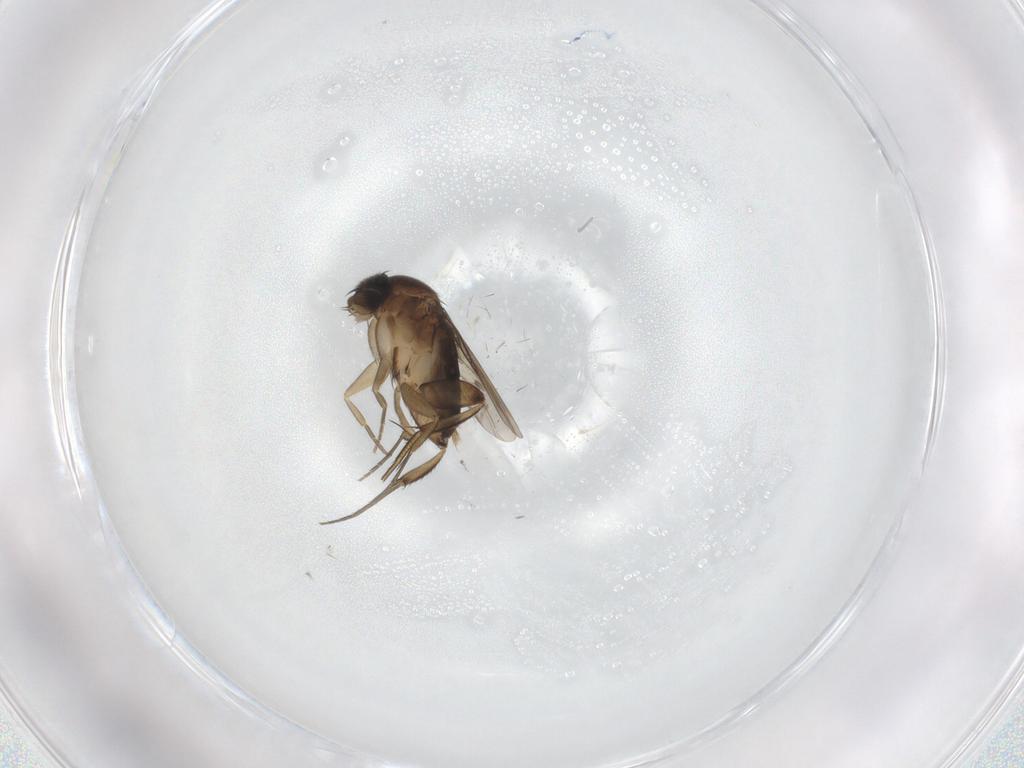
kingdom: Animalia
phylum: Arthropoda
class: Insecta
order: Diptera
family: Phoridae
